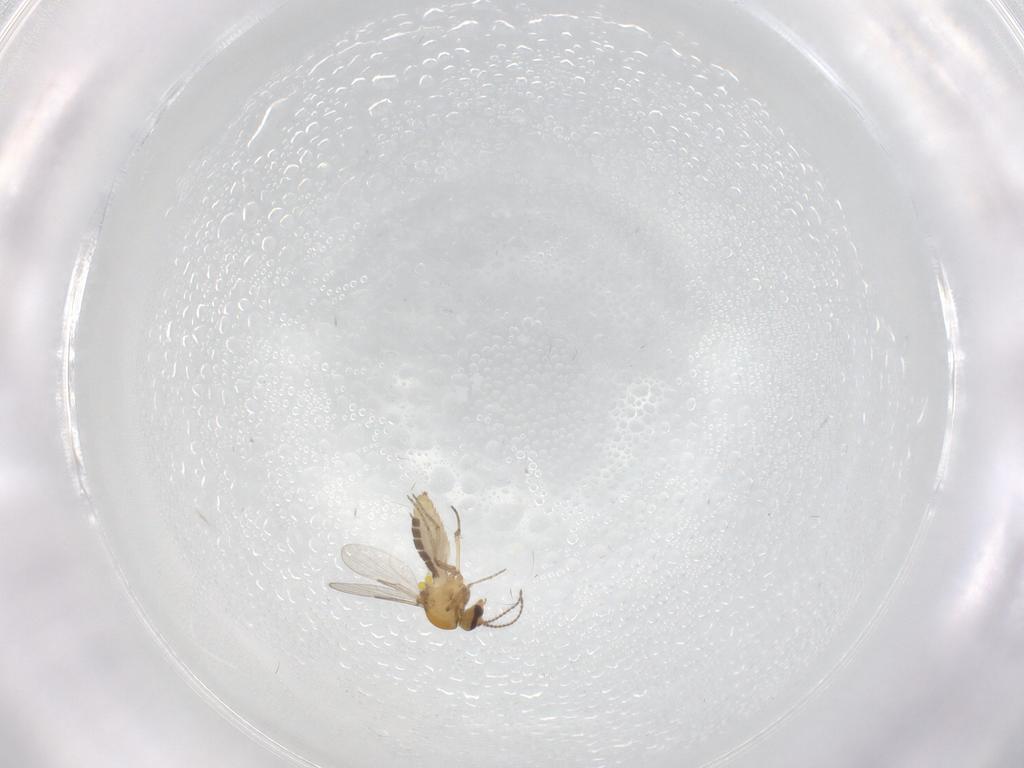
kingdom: Animalia
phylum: Arthropoda
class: Insecta
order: Diptera
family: Ceratopogonidae
